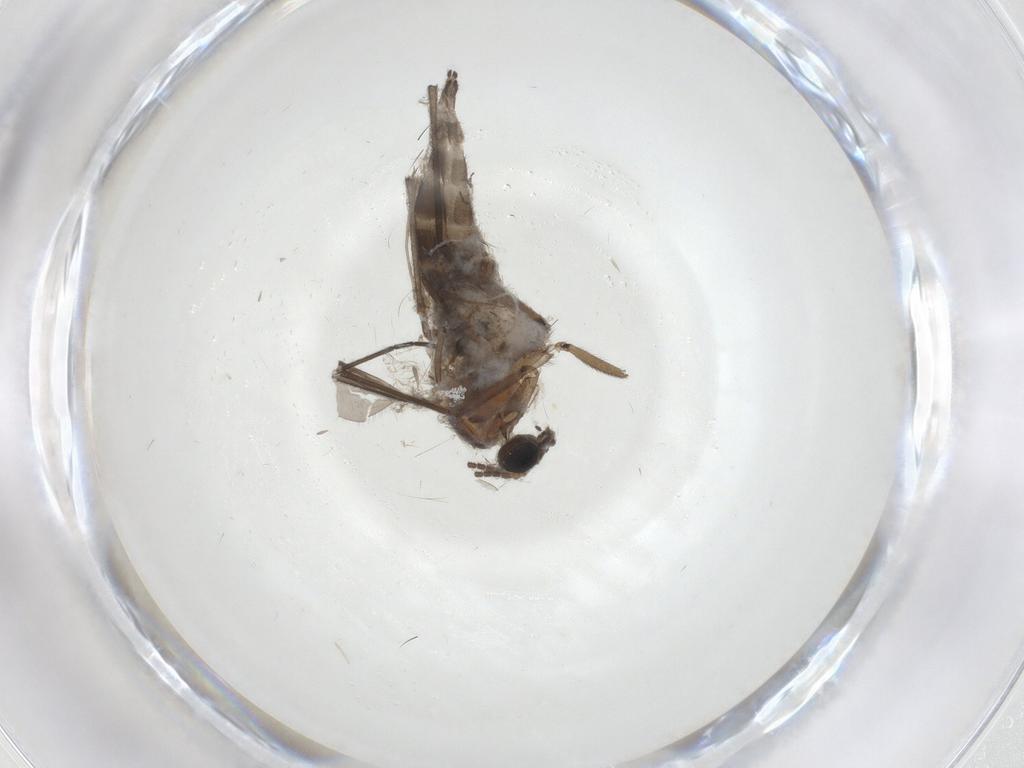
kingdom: Animalia
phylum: Arthropoda
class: Insecta
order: Diptera
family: Sciaridae
